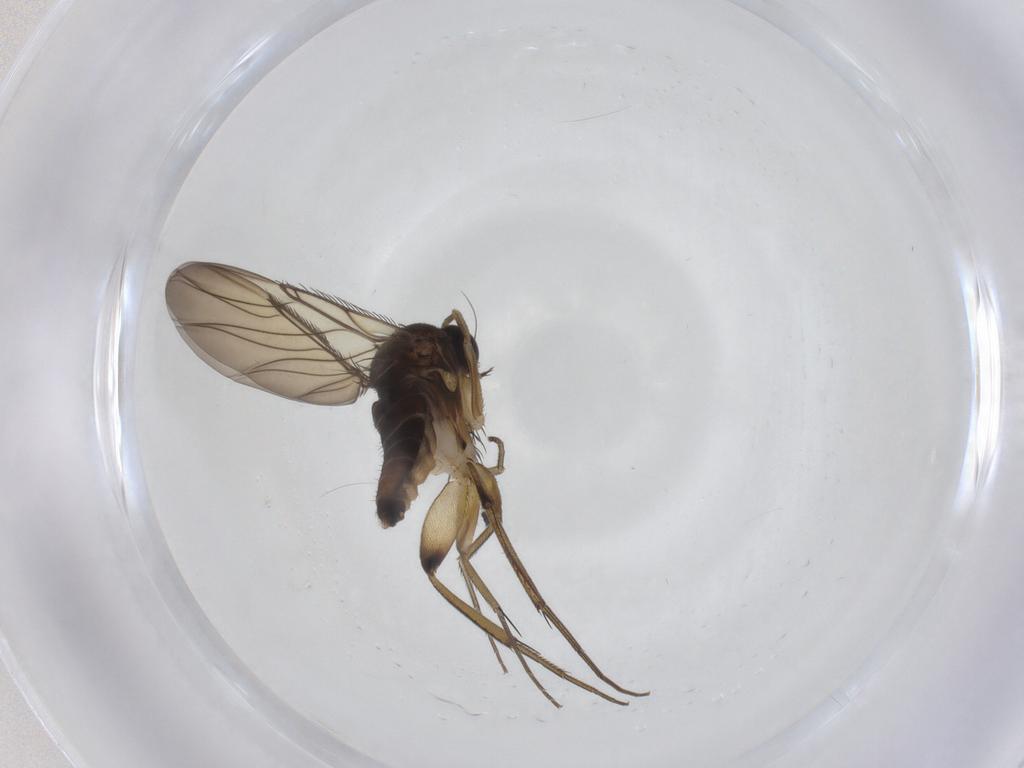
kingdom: Animalia
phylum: Arthropoda
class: Insecta
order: Diptera
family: Phoridae
